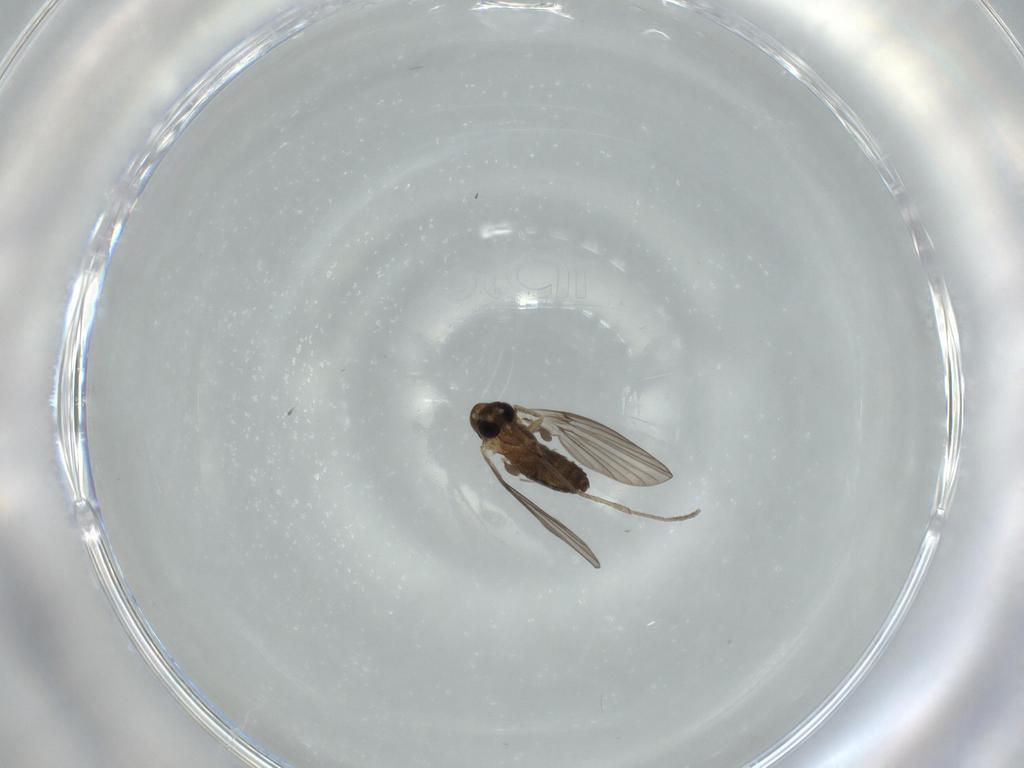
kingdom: Animalia
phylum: Arthropoda
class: Insecta
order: Diptera
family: Psychodidae
